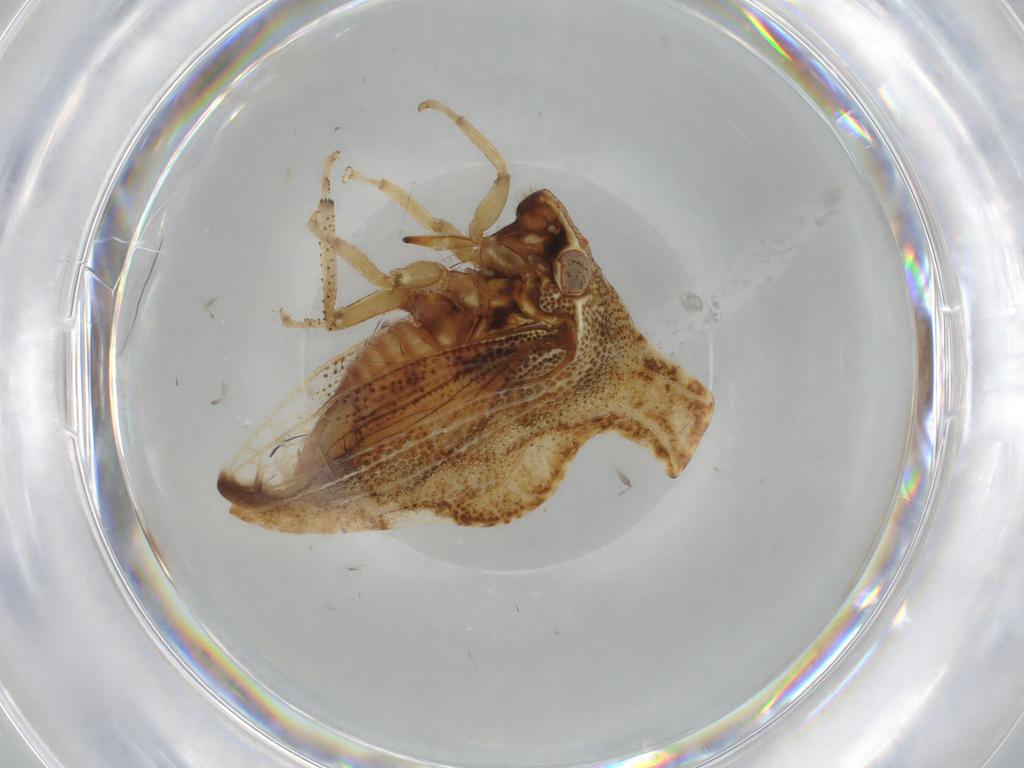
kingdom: Animalia
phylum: Arthropoda
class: Insecta
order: Hemiptera
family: Membracidae
